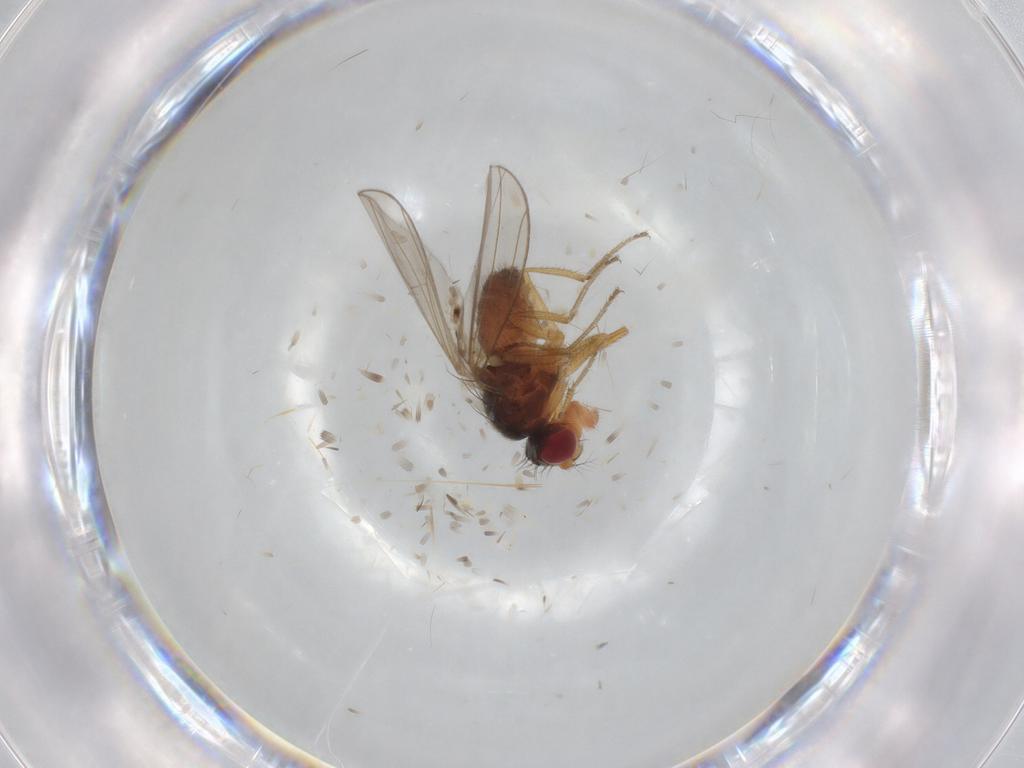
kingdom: Animalia
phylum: Arthropoda
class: Insecta
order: Diptera
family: Drosophilidae
